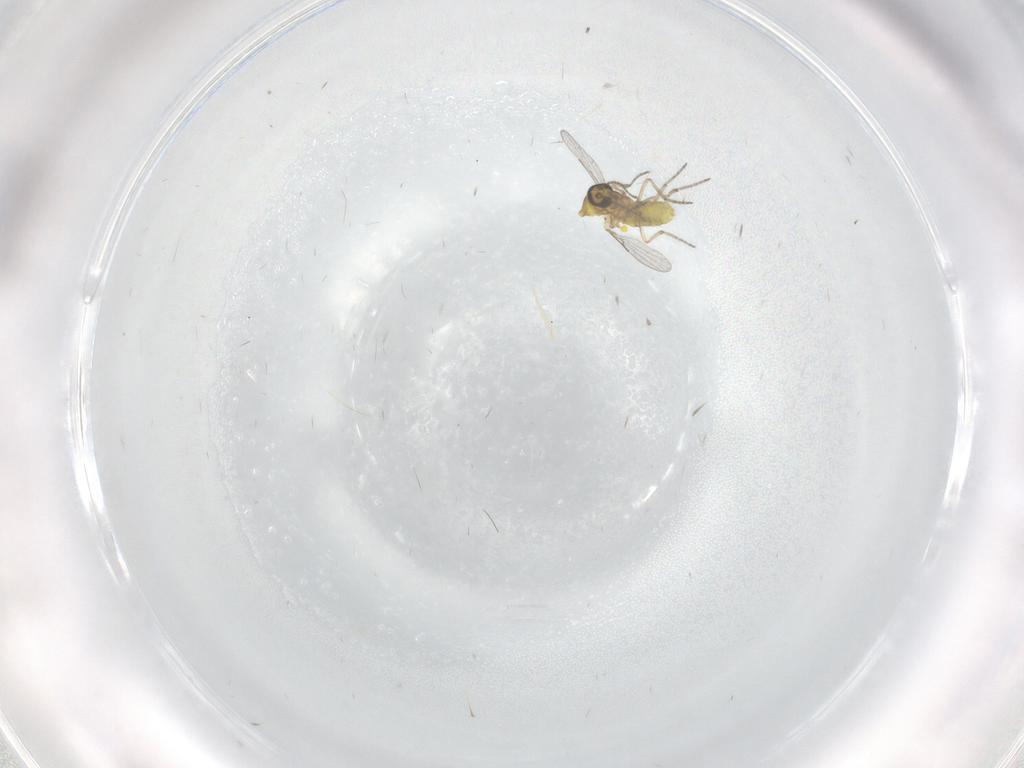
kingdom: Animalia
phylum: Arthropoda
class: Insecta
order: Diptera
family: Ceratopogonidae
